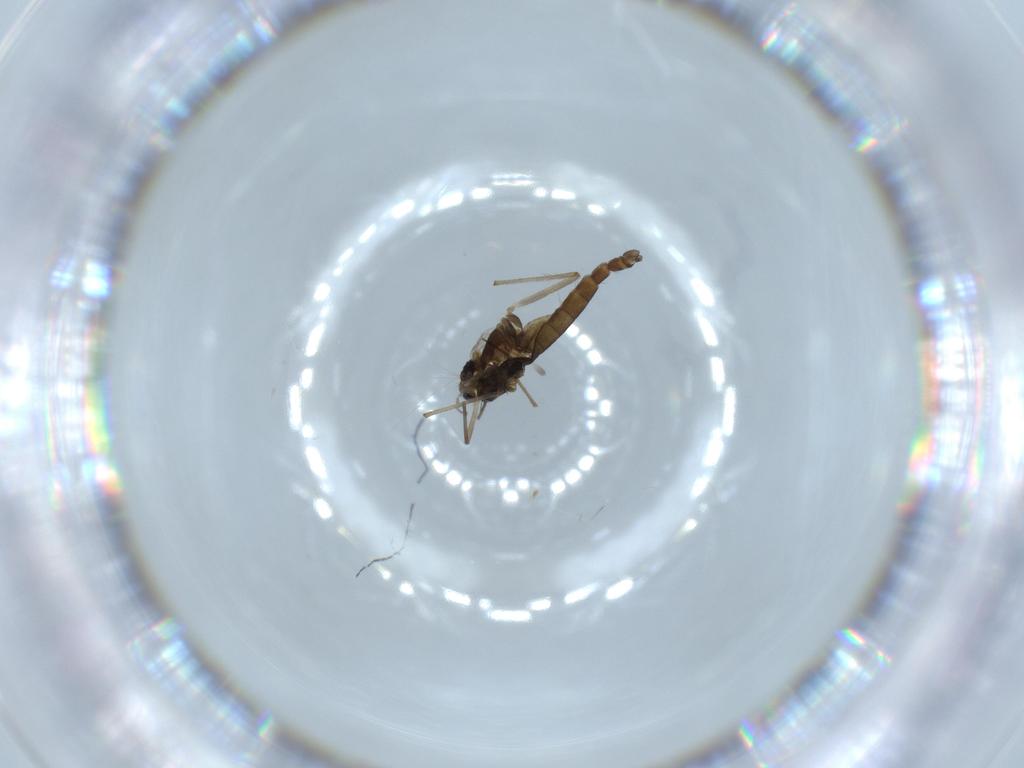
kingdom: Animalia
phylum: Arthropoda
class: Insecta
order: Diptera
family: Chironomidae
